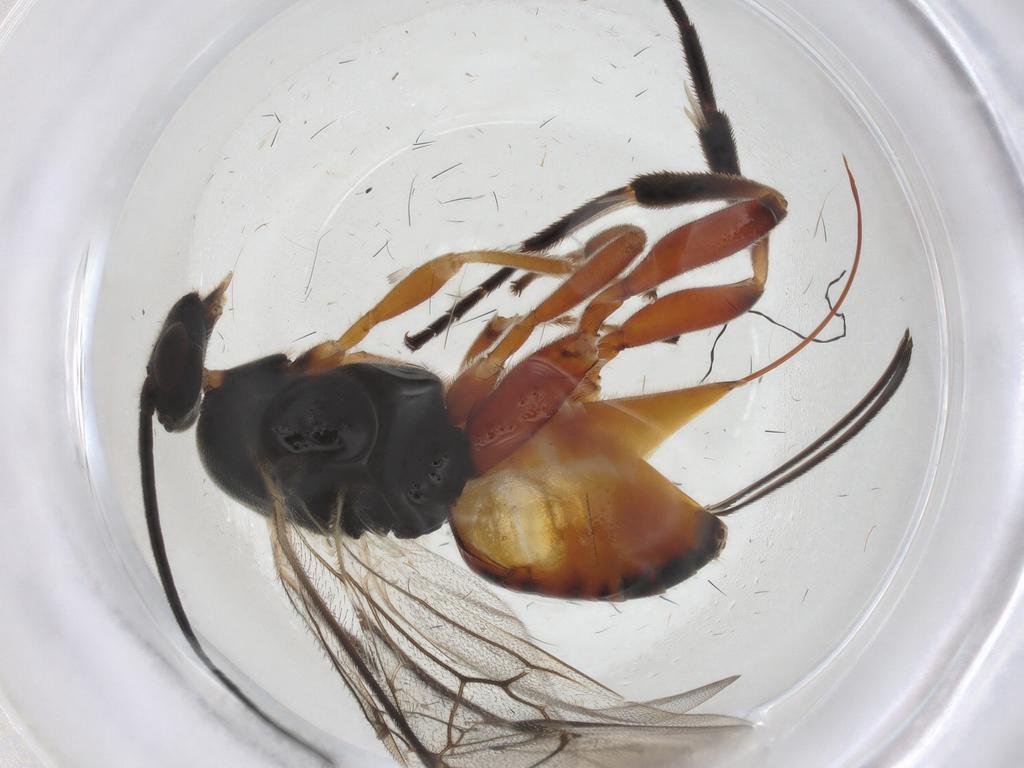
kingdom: Animalia
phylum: Arthropoda
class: Insecta
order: Hymenoptera
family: Braconidae
